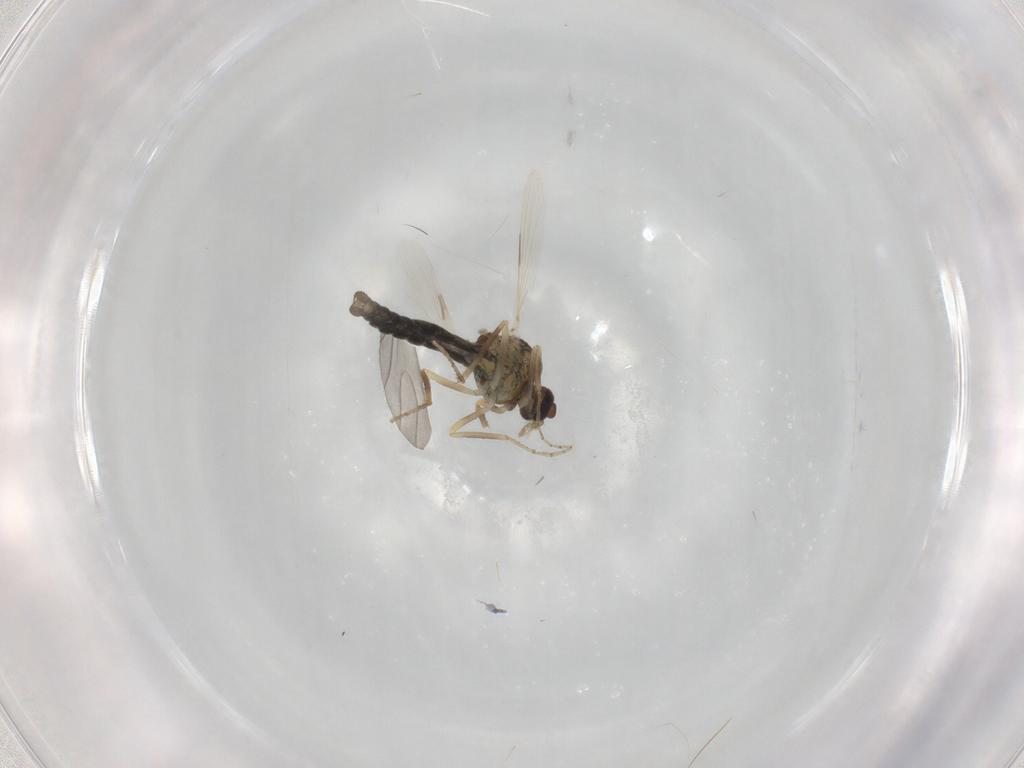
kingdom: Animalia
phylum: Arthropoda
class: Insecta
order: Diptera
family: Ceratopogonidae
